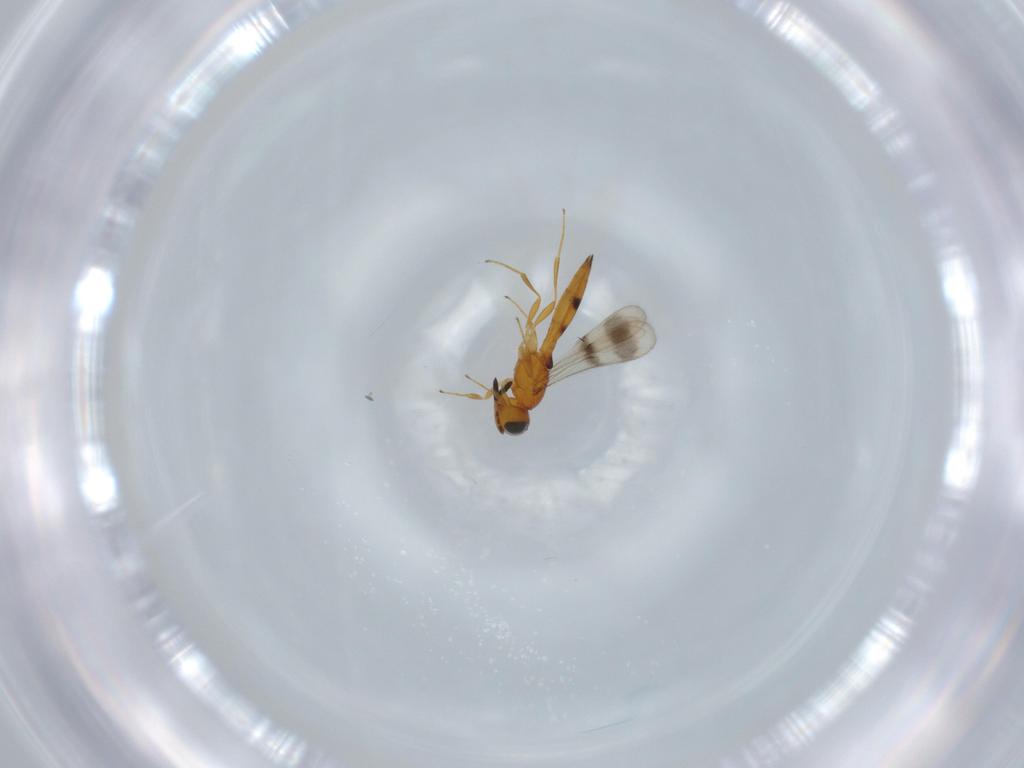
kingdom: Animalia
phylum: Arthropoda
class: Insecta
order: Hymenoptera
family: Scelionidae
